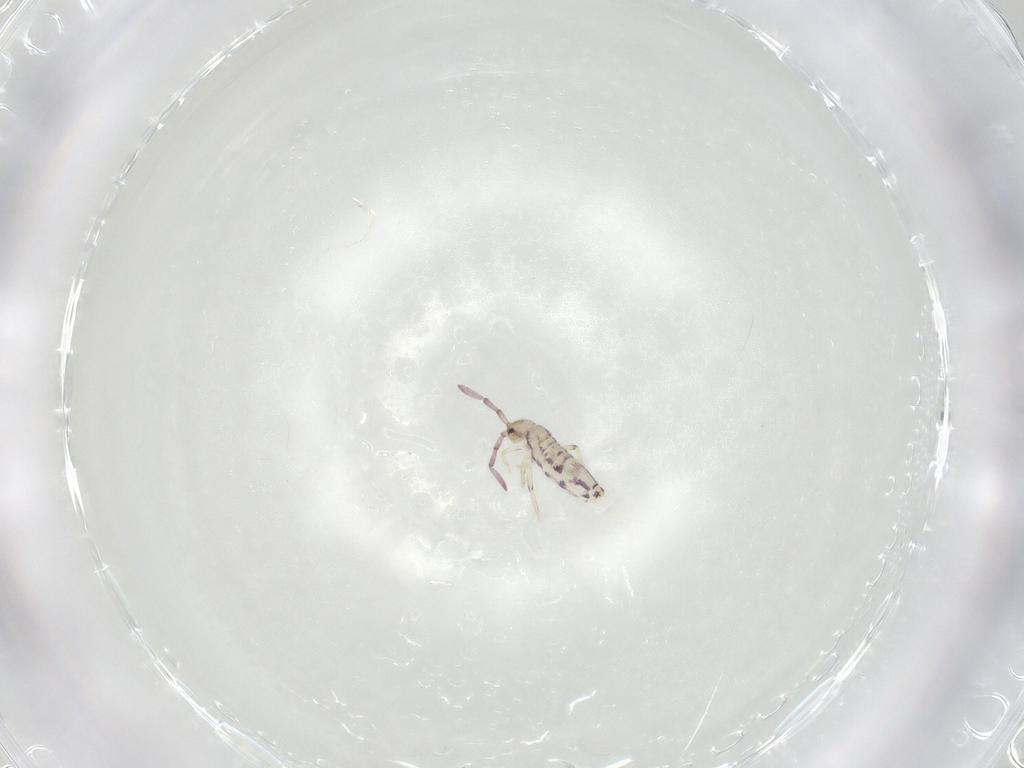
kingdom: Animalia
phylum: Arthropoda
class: Collembola
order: Entomobryomorpha
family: Entomobryidae
